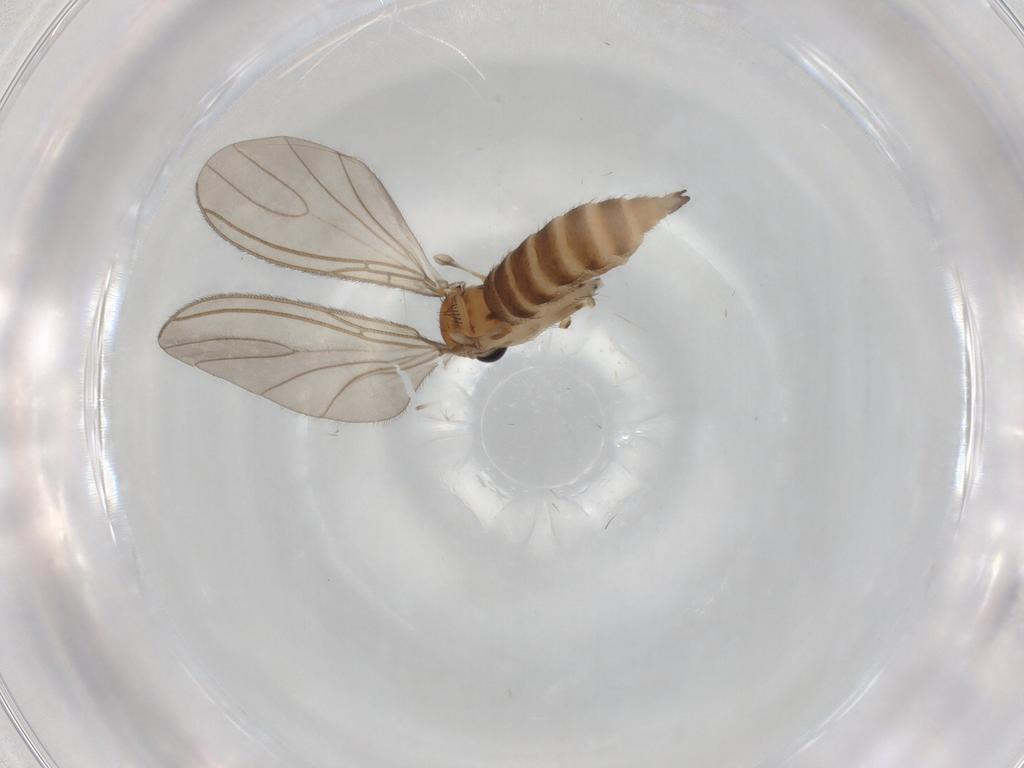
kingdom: Animalia
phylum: Arthropoda
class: Insecta
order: Diptera
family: Sciaridae
